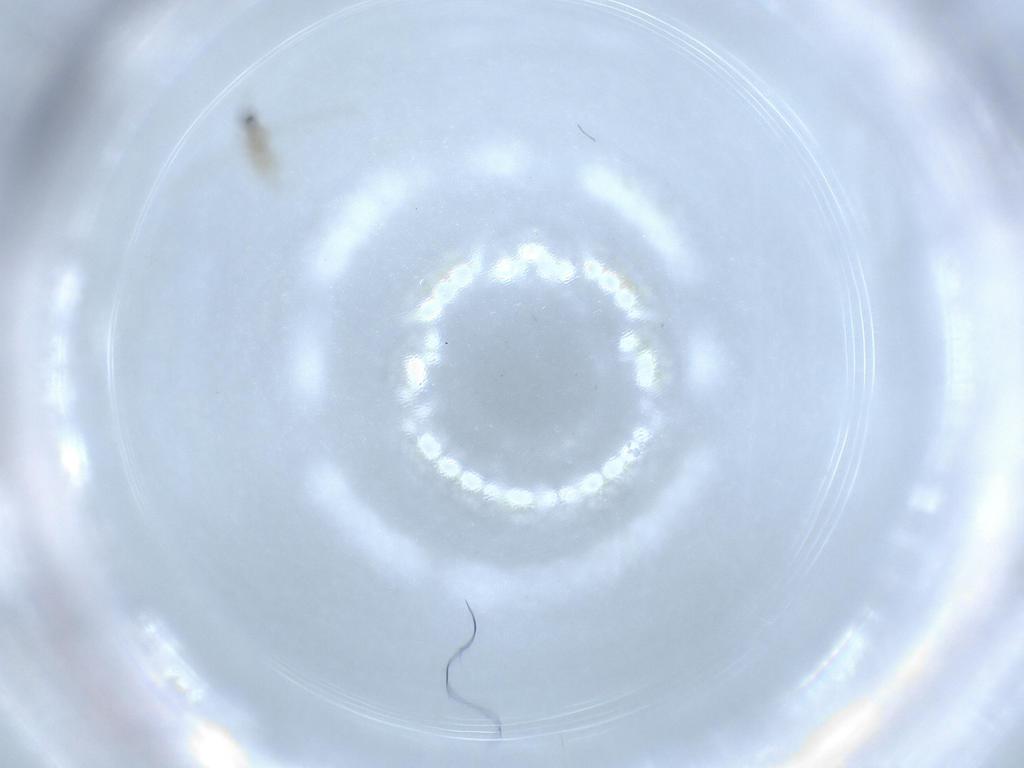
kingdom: Animalia
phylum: Arthropoda
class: Insecta
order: Diptera
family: Cecidomyiidae
